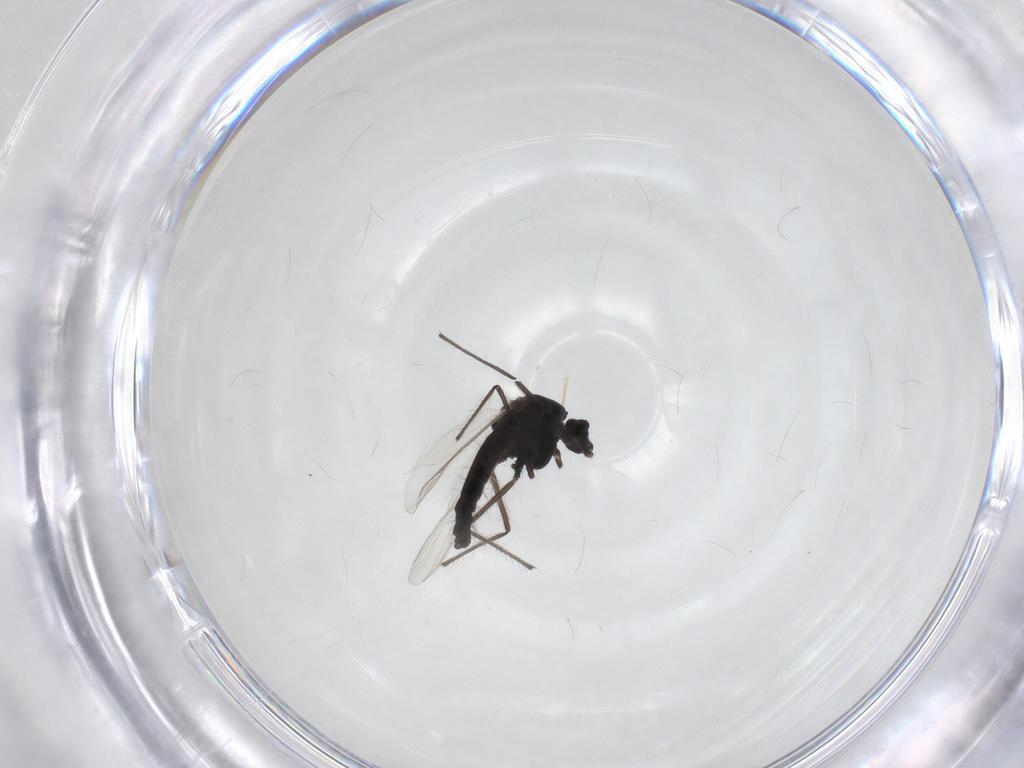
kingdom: Animalia
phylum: Arthropoda
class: Insecta
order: Diptera
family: Chironomidae
